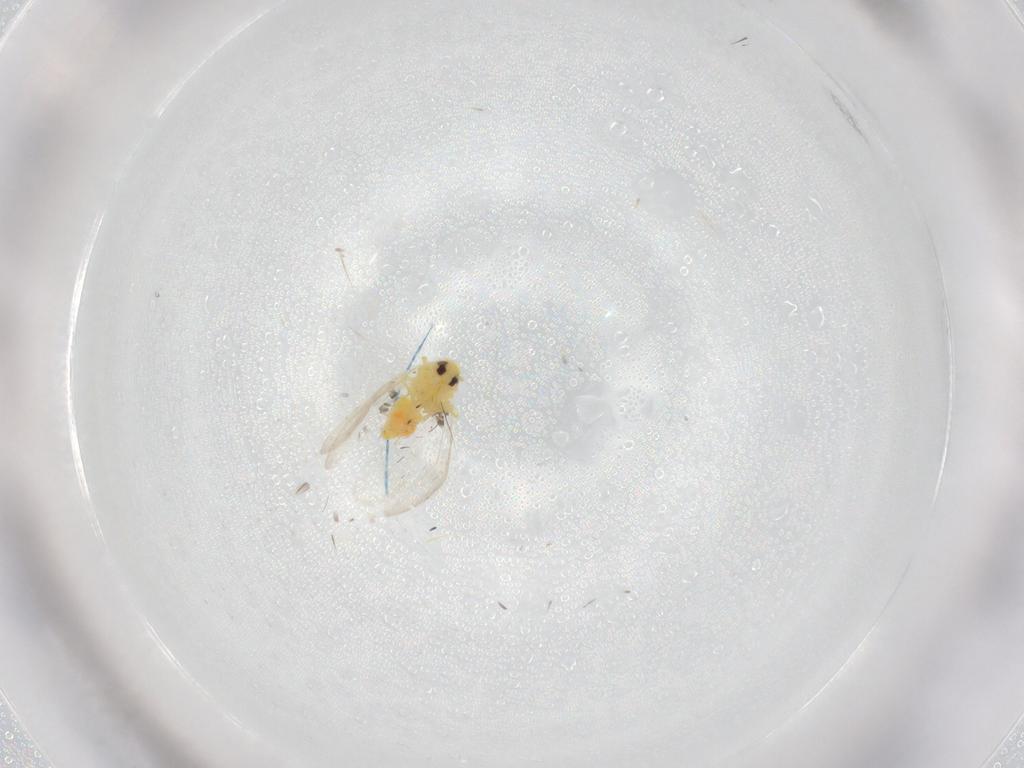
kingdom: Animalia
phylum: Arthropoda
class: Insecta
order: Hemiptera
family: Aleyrodidae
